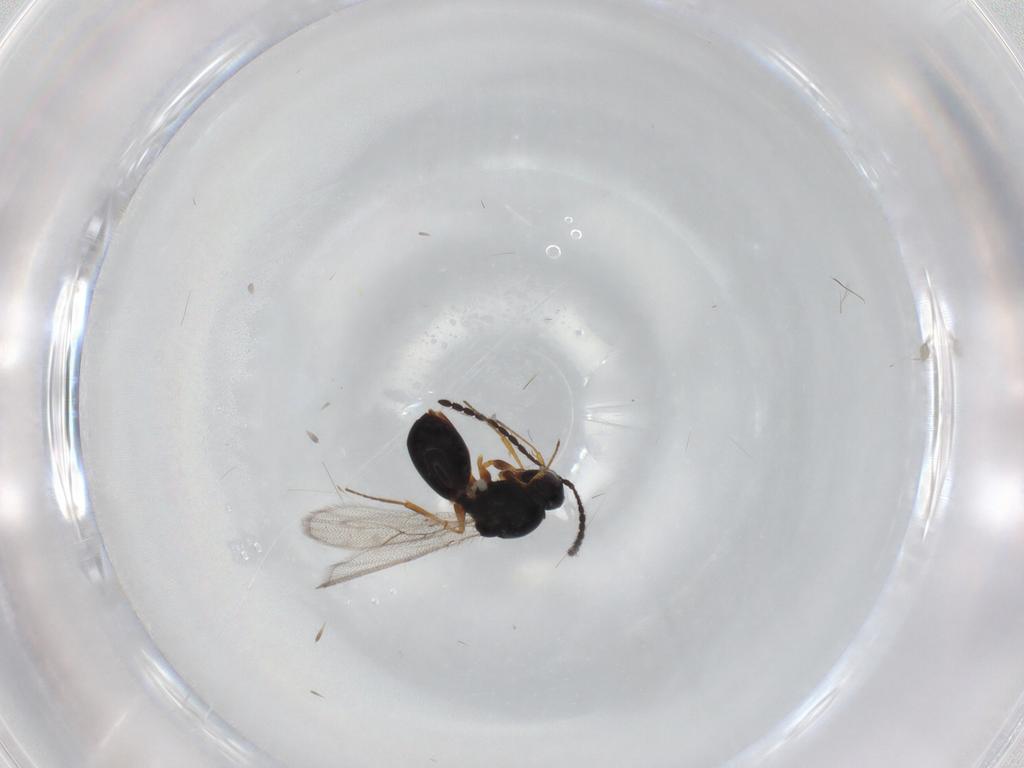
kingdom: Animalia
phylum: Arthropoda
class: Insecta
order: Hymenoptera
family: Figitidae
